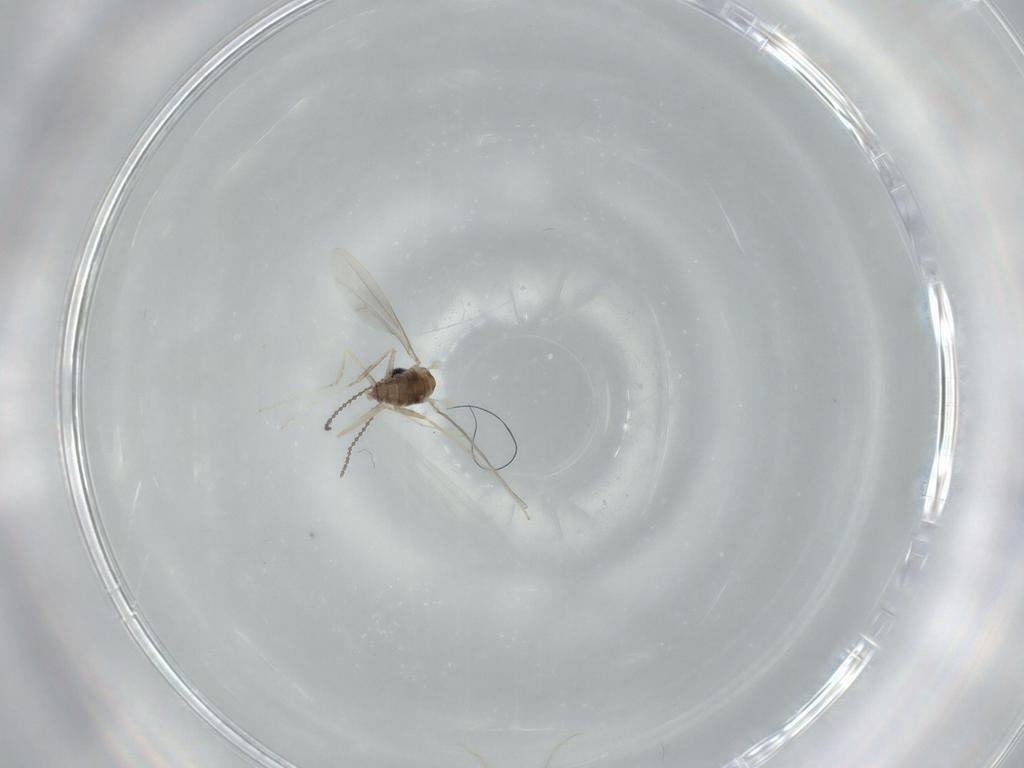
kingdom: Animalia
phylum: Arthropoda
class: Insecta
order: Diptera
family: Cecidomyiidae
